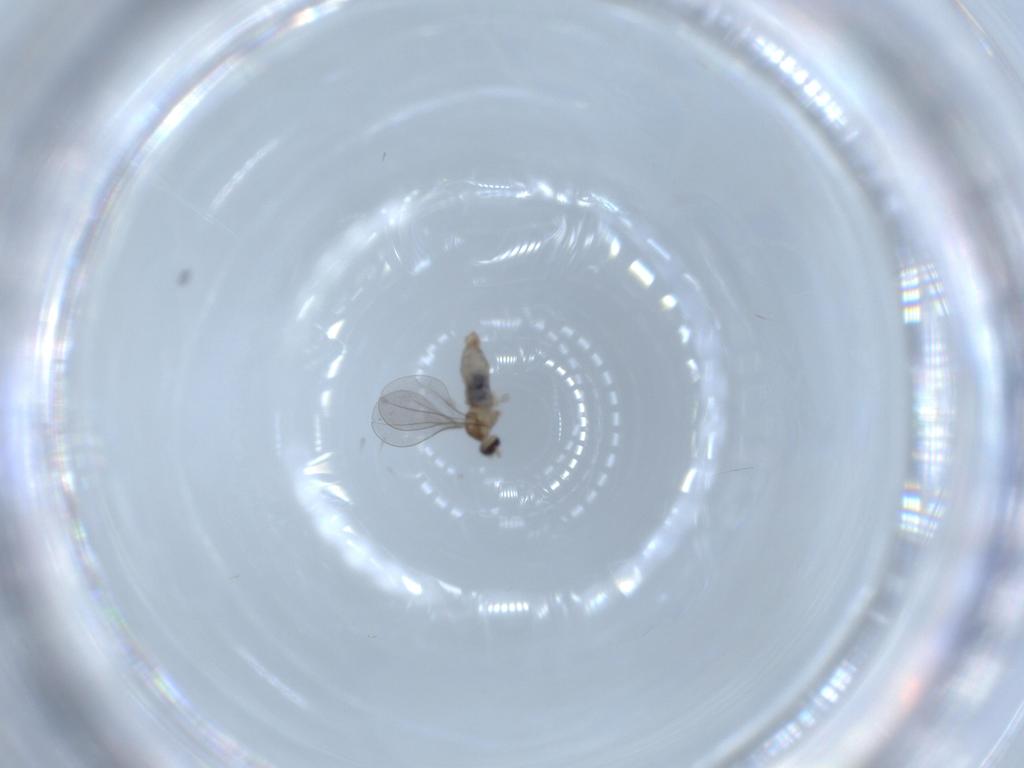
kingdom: Animalia
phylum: Arthropoda
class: Insecta
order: Diptera
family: Cecidomyiidae
